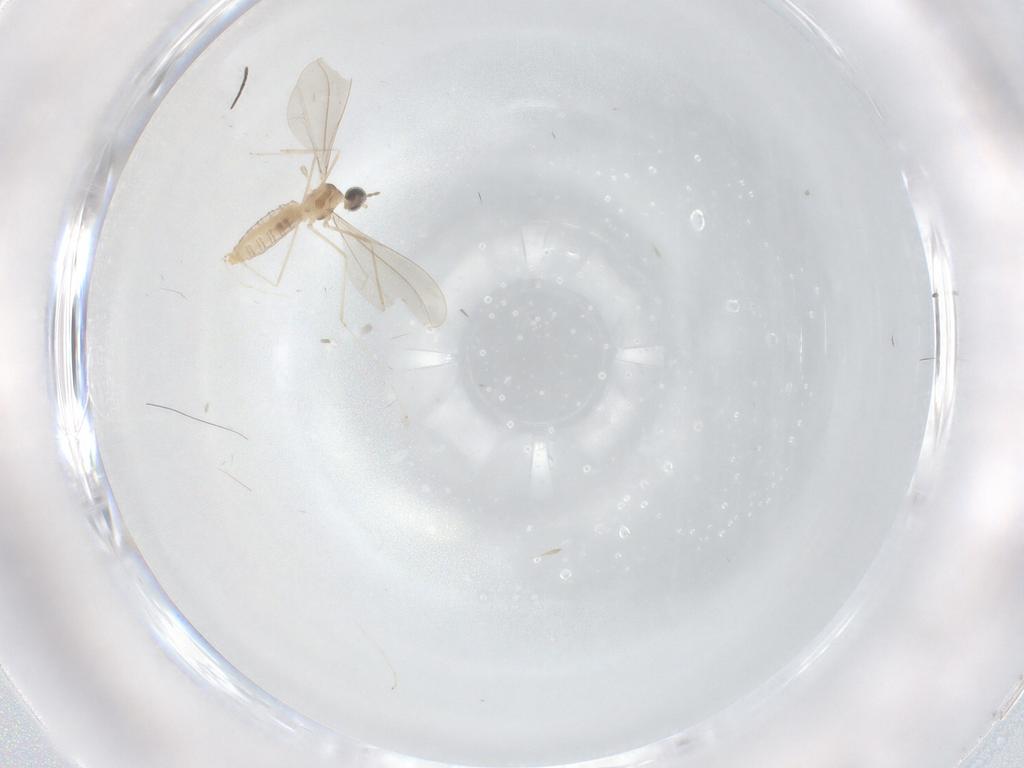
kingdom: Animalia
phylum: Arthropoda
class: Insecta
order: Diptera
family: Sciaridae
